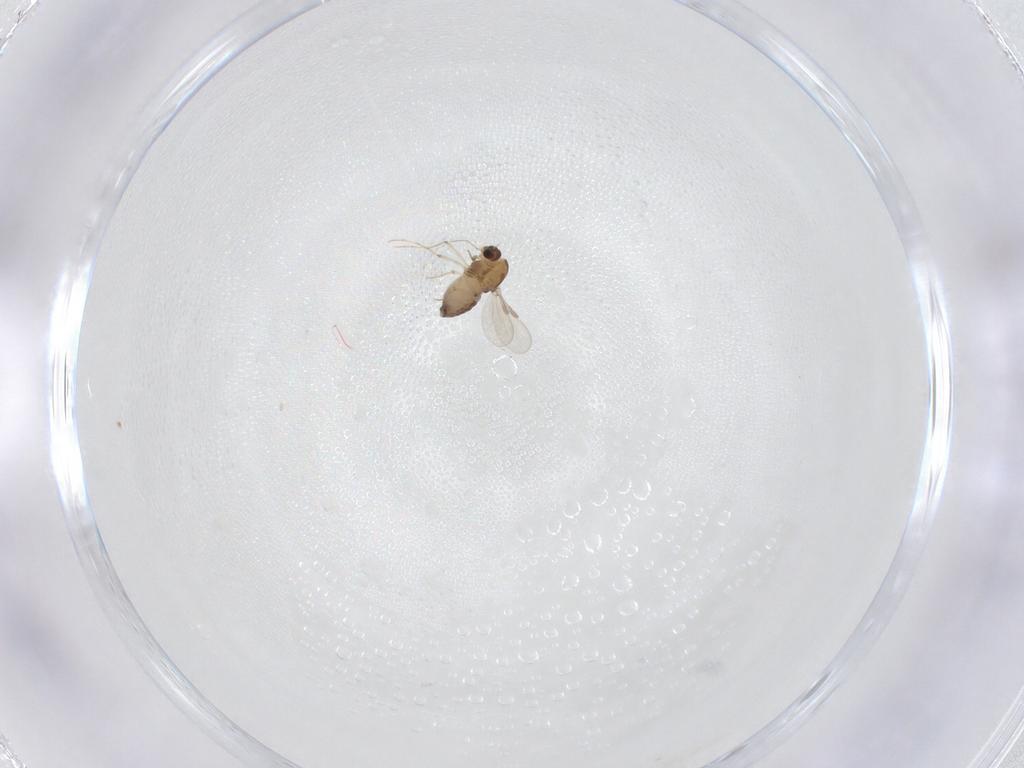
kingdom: Animalia
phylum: Arthropoda
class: Insecta
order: Diptera
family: Chironomidae
